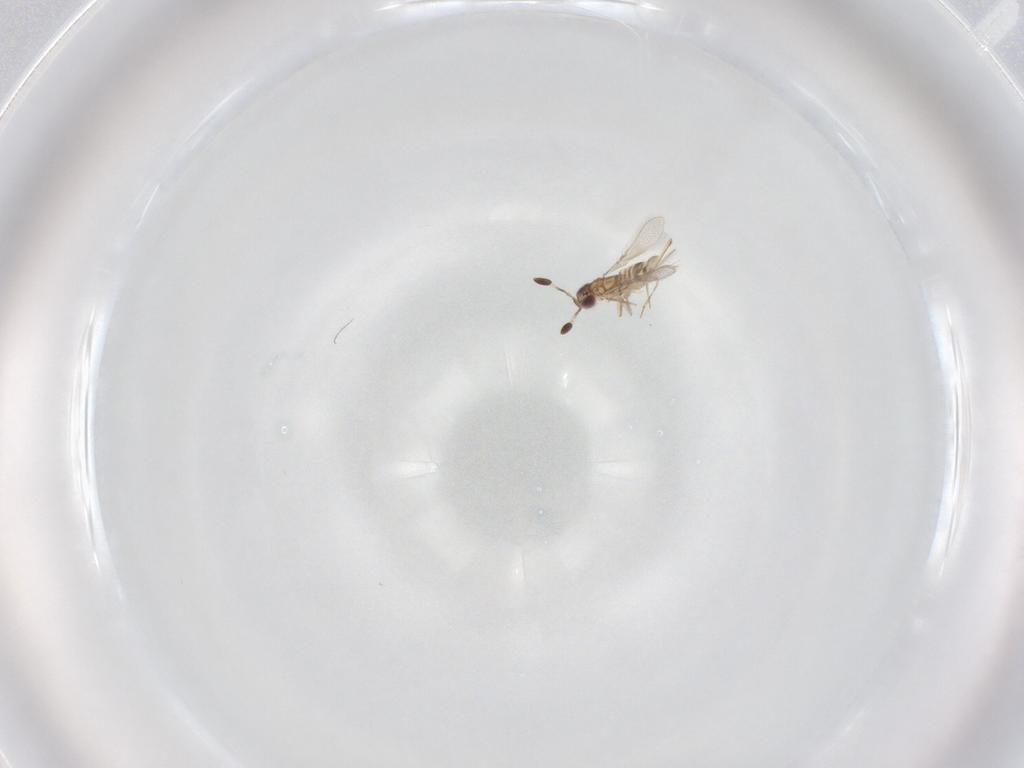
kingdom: Animalia
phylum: Arthropoda
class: Insecta
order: Hymenoptera
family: Mymaridae
